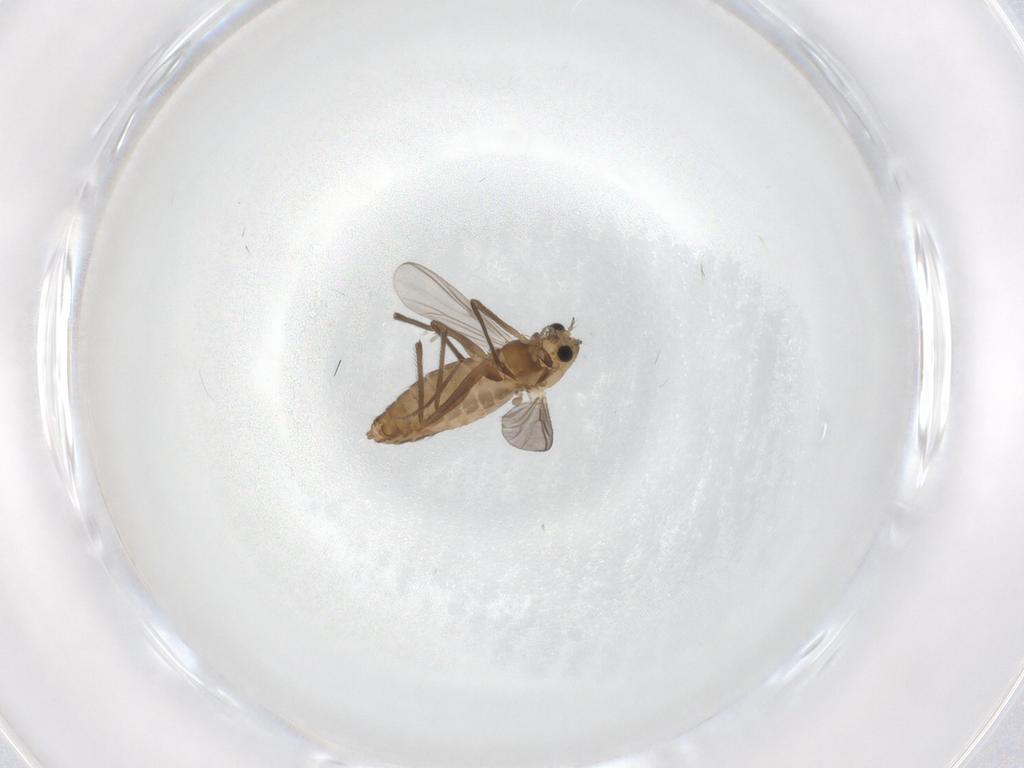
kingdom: Animalia
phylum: Arthropoda
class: Insecta
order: Diptera
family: Chironomidae
